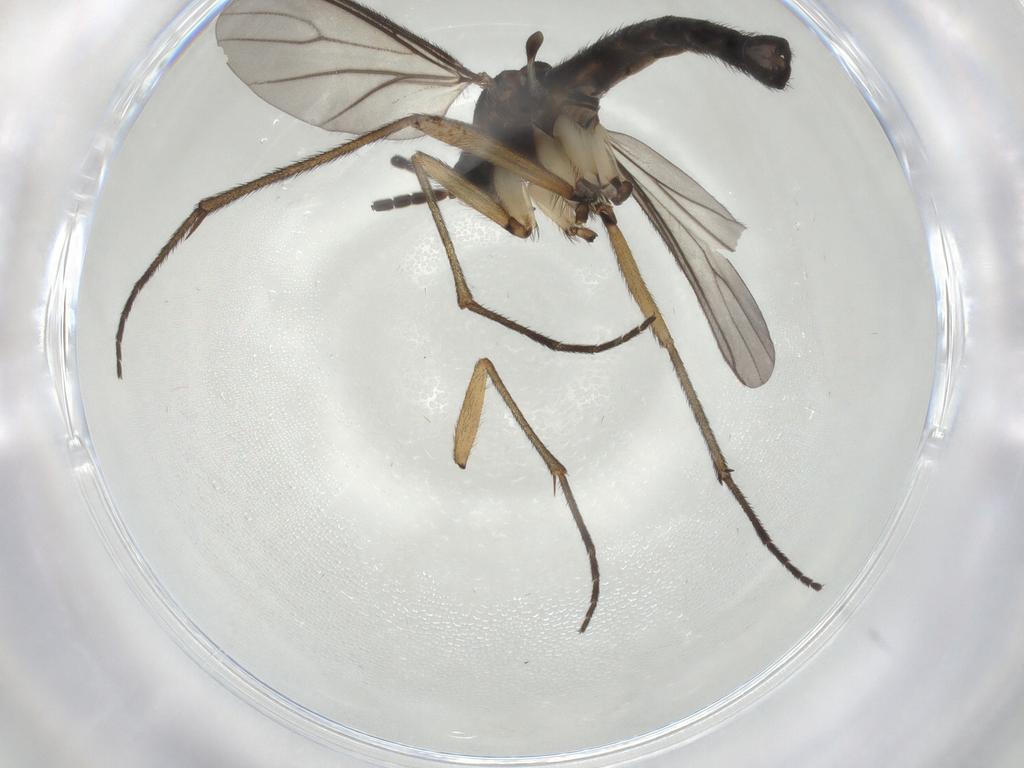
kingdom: Animalia
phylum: Arthropoda
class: Insecta
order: Diptera
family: Sciaridae
